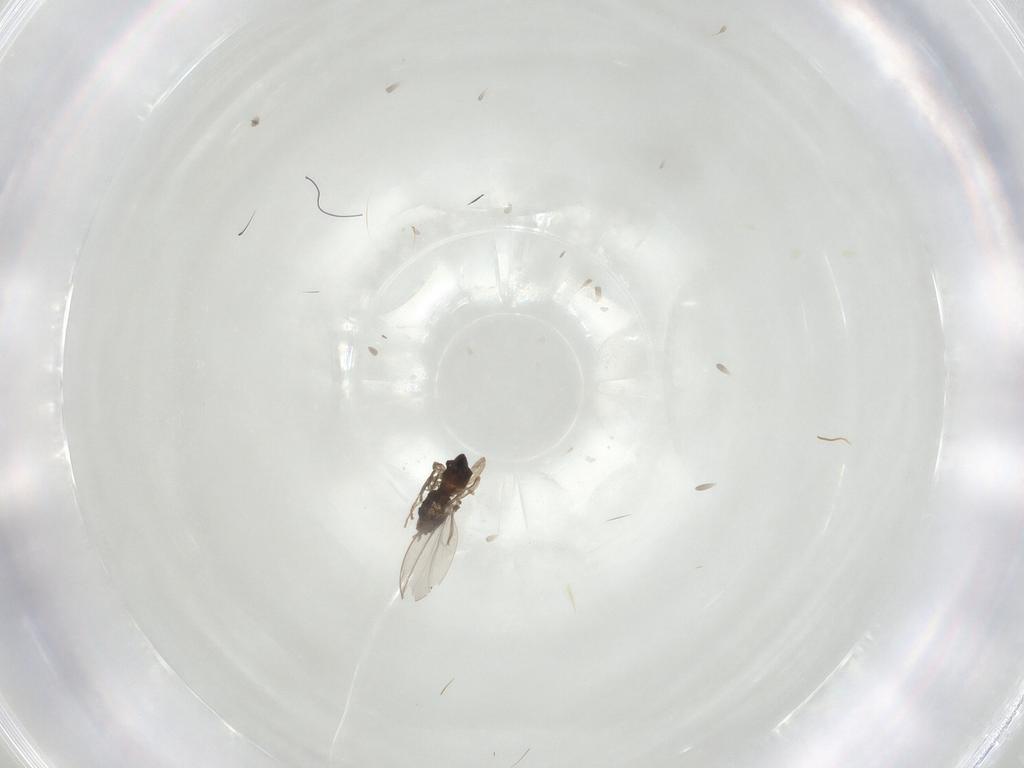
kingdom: Animalia
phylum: Arthropoda
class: Insecta
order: Diptera
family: Cecidomyiidae
